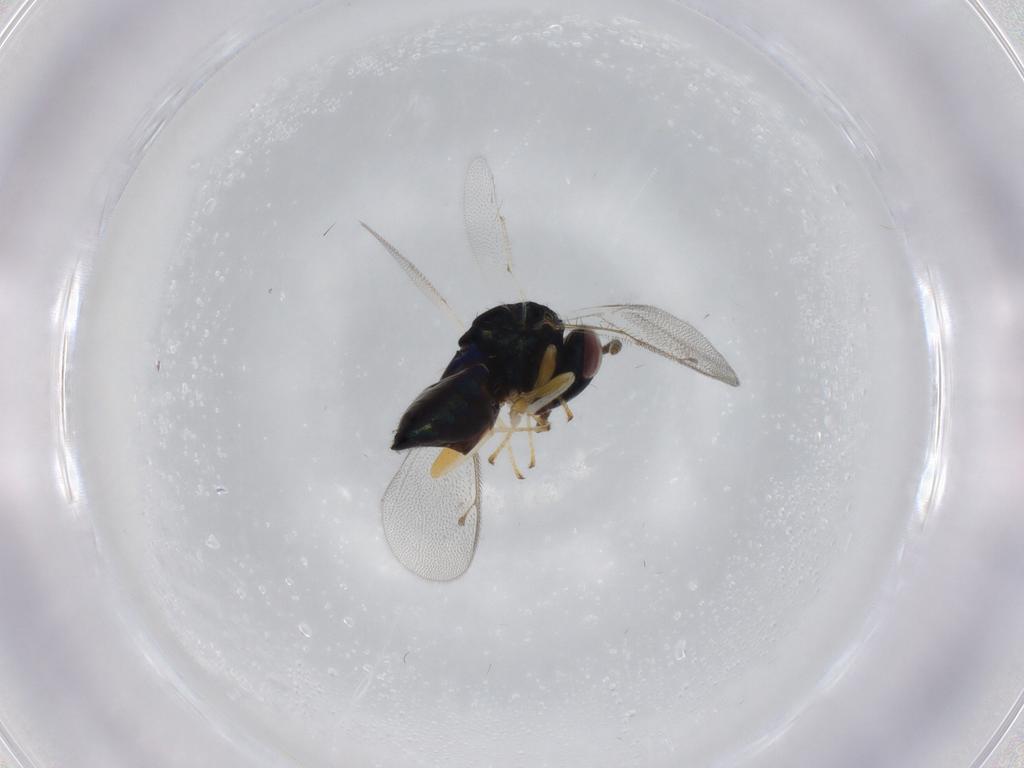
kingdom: Animalia
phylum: Arthropoda
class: Insecta
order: Hymenoptera
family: Pteromalidae
